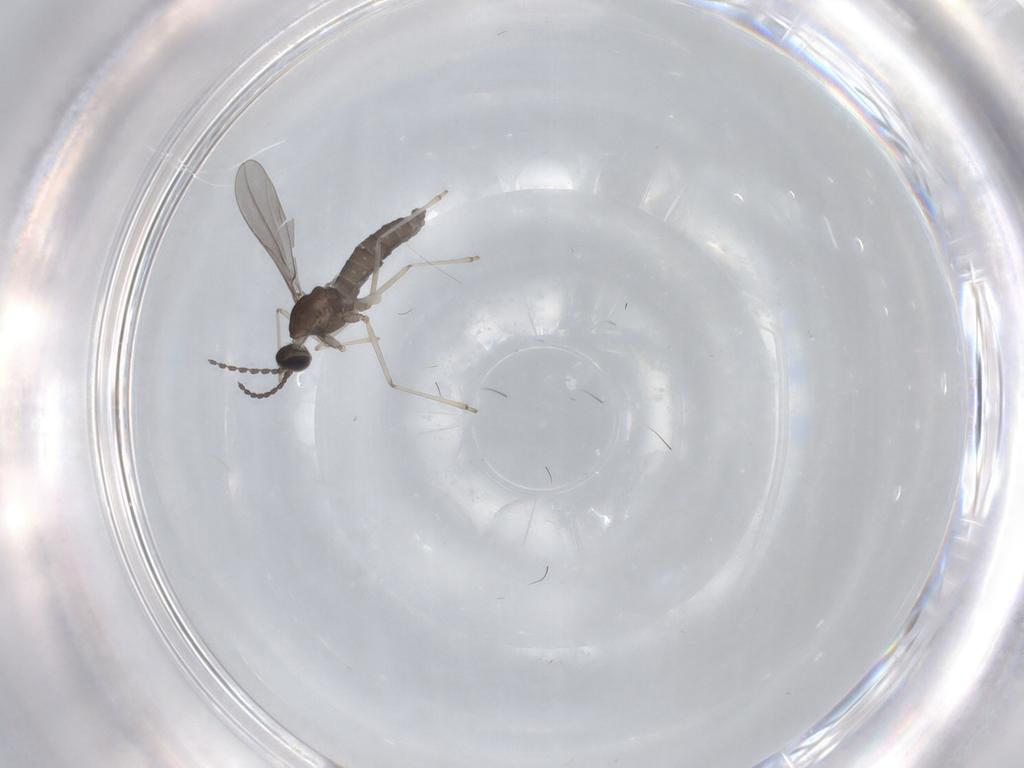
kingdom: Animalia
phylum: Arthropoda
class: Insecta
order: Diptera
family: Cecidomyiidae
